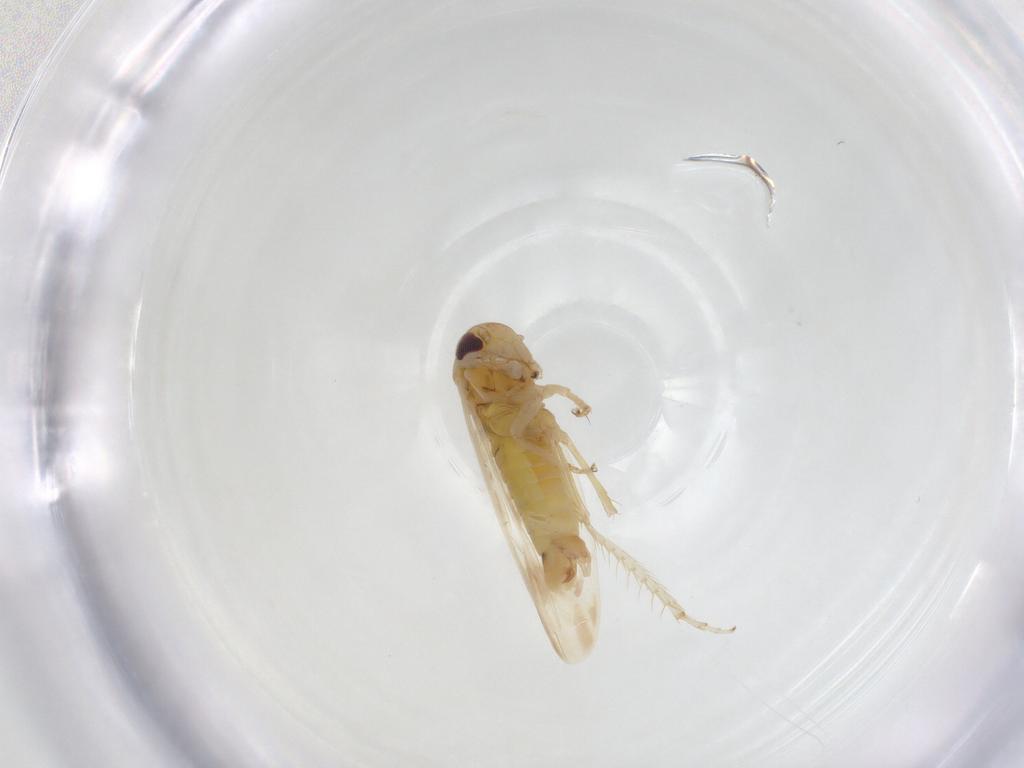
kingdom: Animalia
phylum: Arthropoda
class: Insecta
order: Hemiptera
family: Cicadellidae
